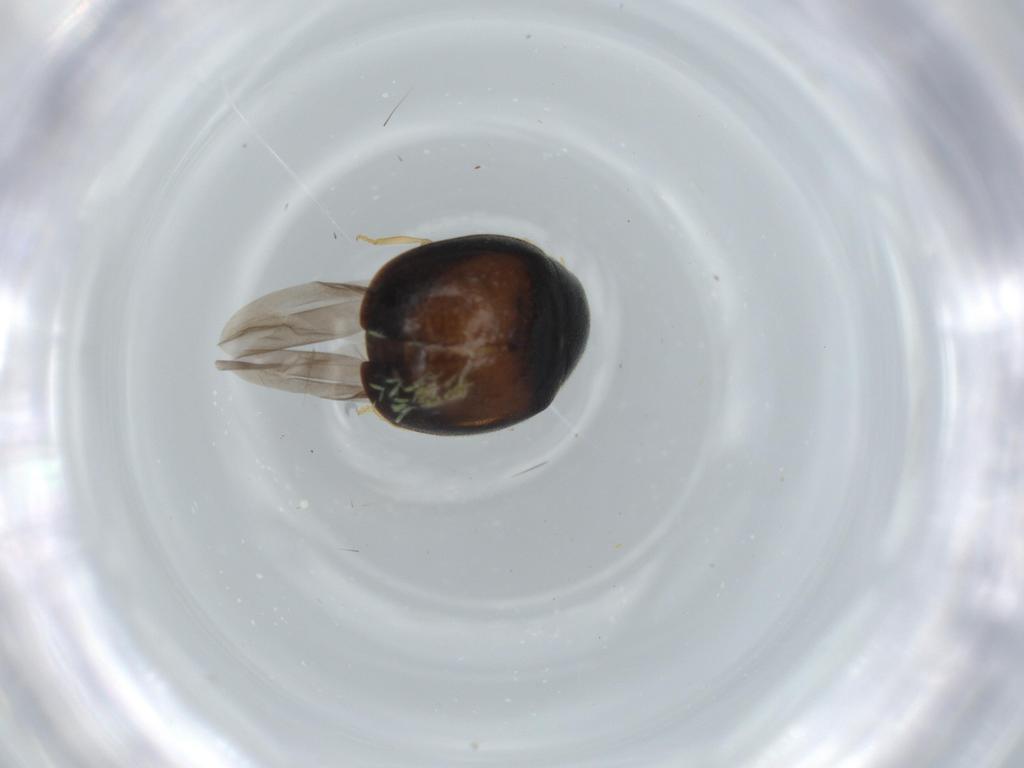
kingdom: Animalia
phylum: Arthropoda
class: Insecta
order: Coleoptera
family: Coccinellidae
